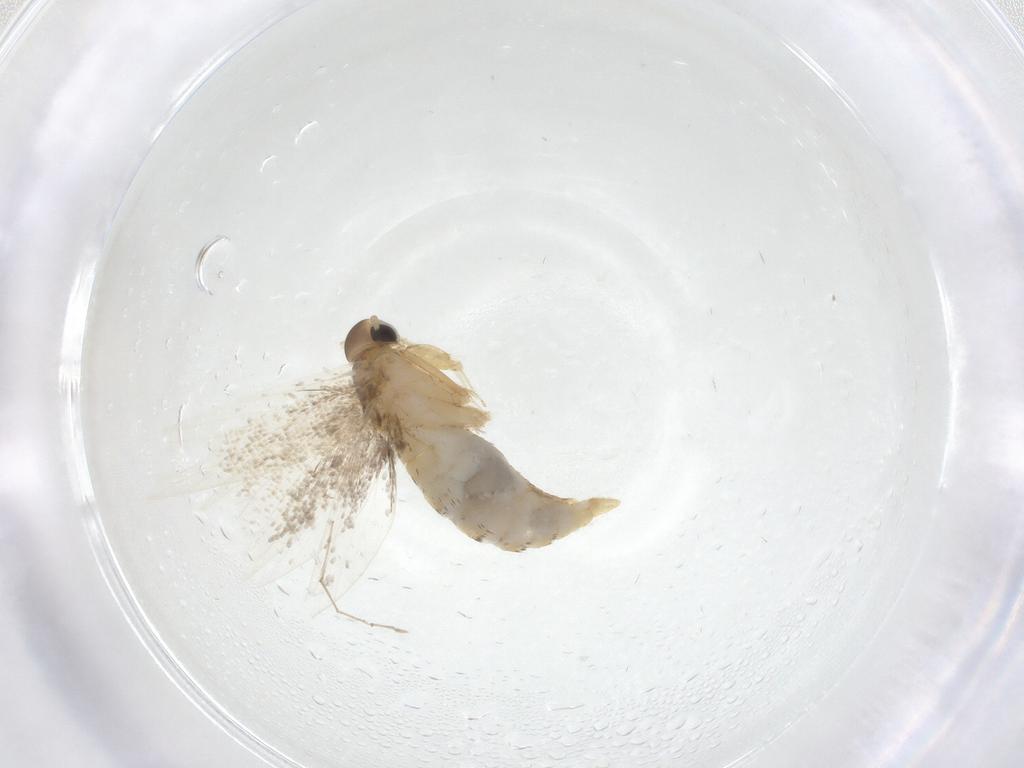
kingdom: Animalia
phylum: Arthropoda
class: Insecta
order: Lepidoptera
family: Oecophoridae
